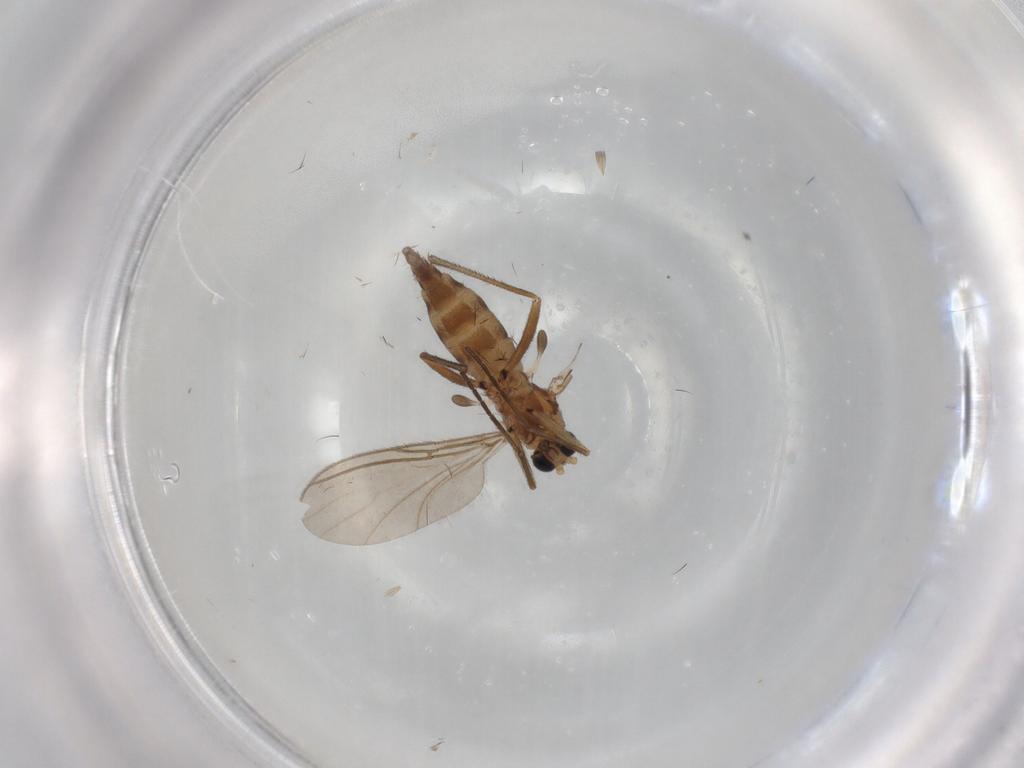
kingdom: Animalia
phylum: Arthropoda
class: Insecta
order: Diptera
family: Sciaridae
